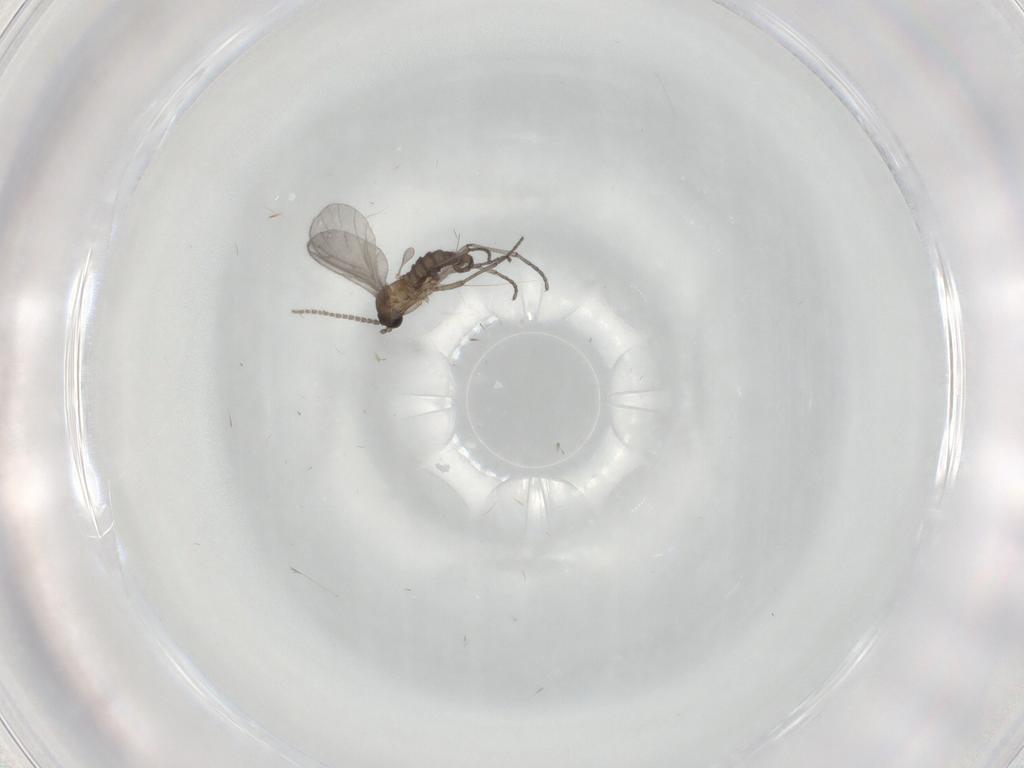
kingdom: Animalia
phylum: Arthropoda
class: Insecta
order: Diptera
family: Sciaridae
